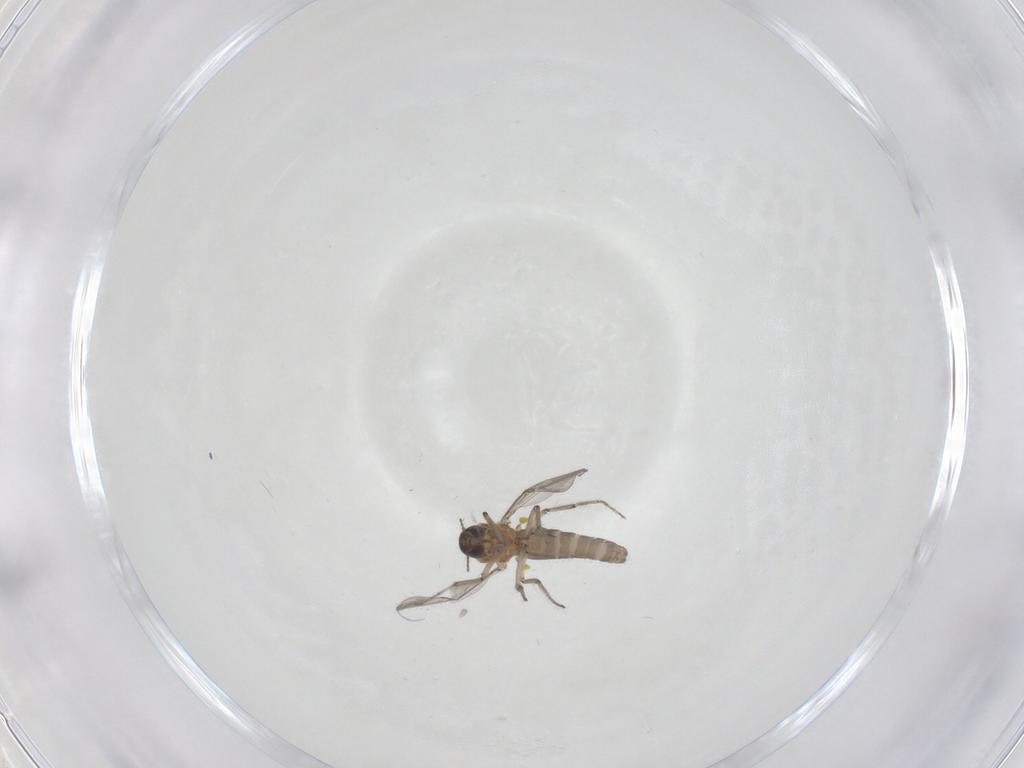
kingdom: Animalia
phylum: Arthropoda
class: Insecta
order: Diptera
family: Ceratopogonidae
